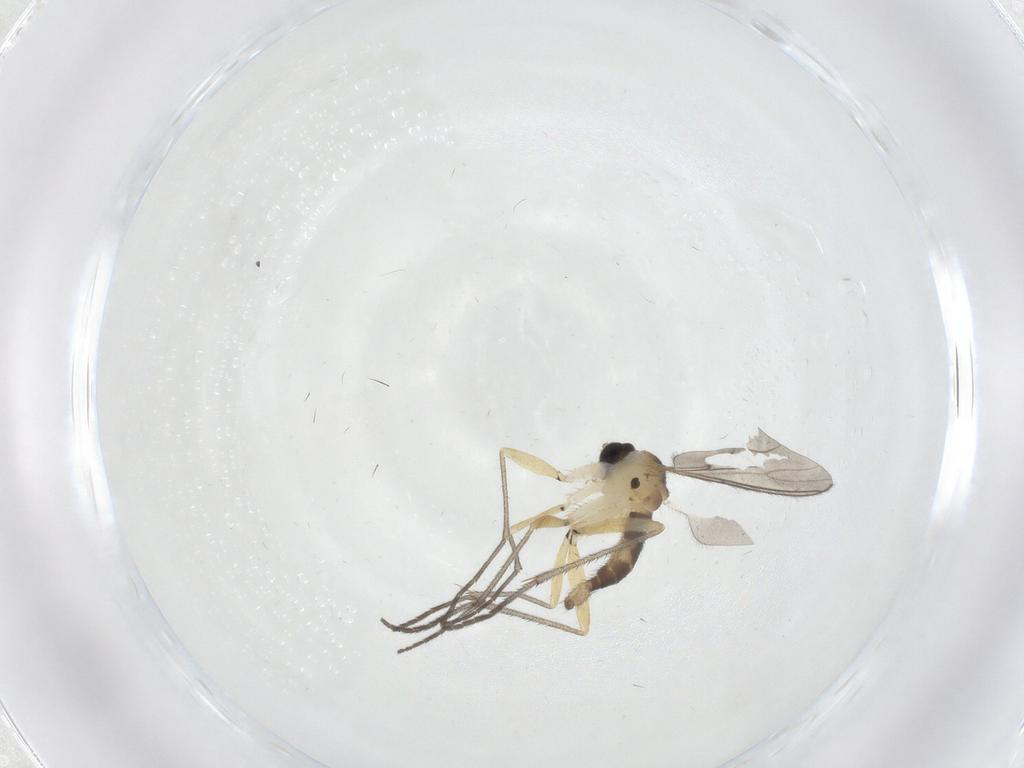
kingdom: Animalia
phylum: Arthropoda
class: Insecta
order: Diptera
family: Sciaridae
